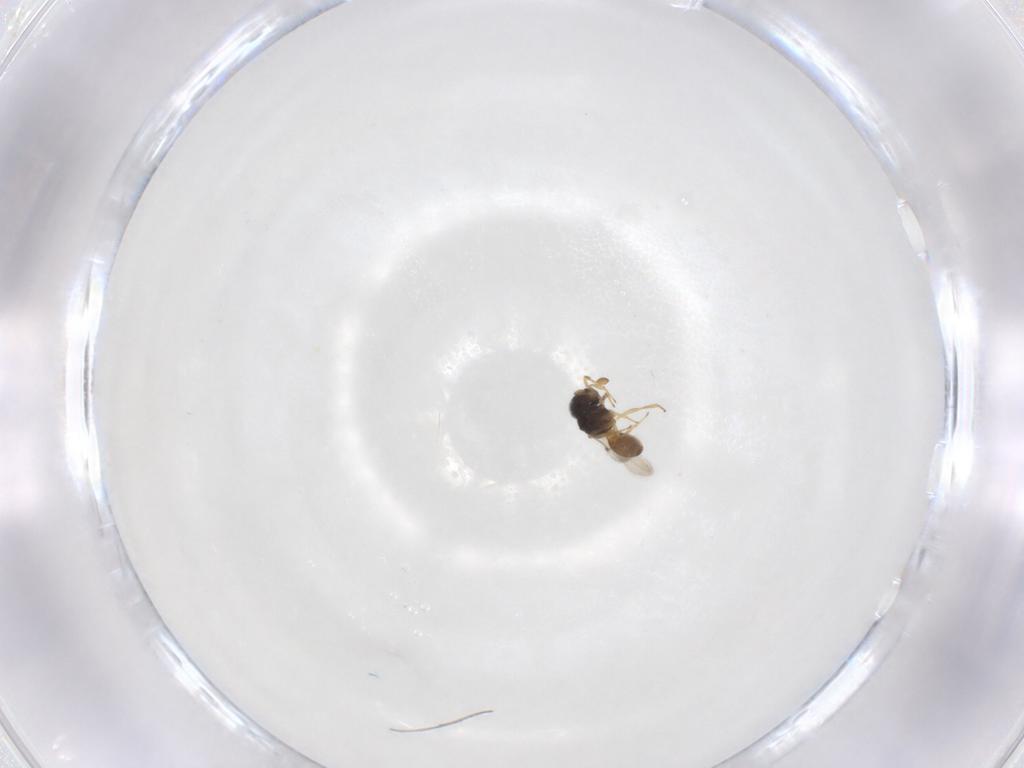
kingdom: Animalia
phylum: Arthropoda
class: Insecta
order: Hymenoptera
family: Scelionidae
